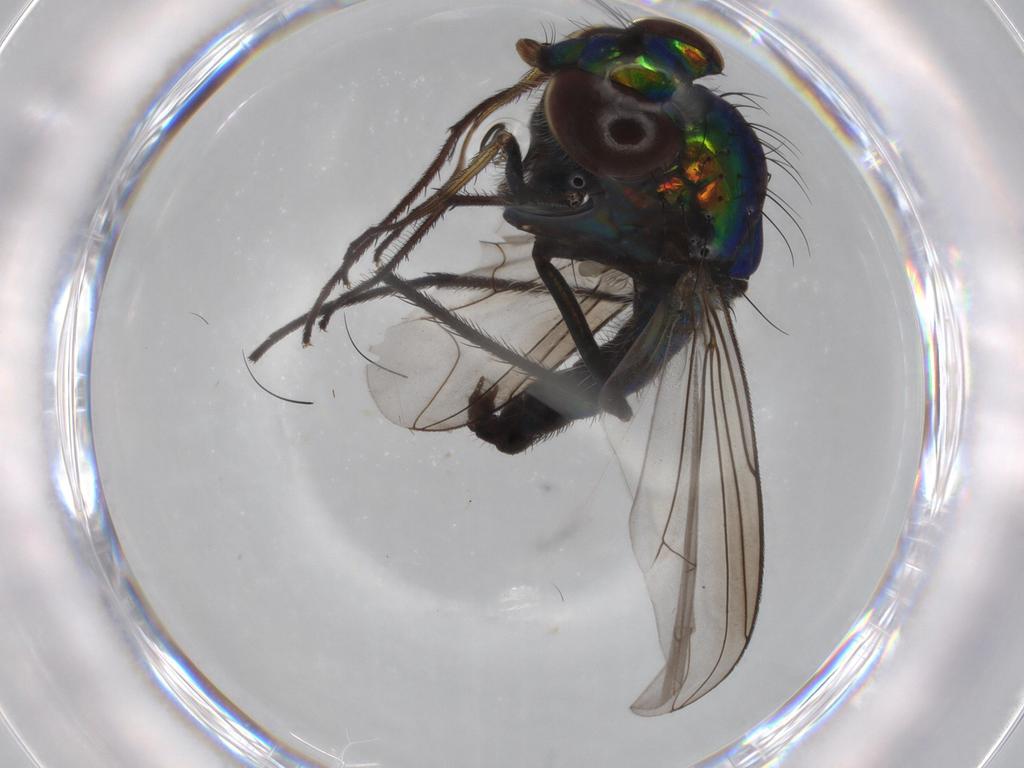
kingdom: Animalia
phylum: Arthropoda
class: Insecta
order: Diptera
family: Dolichopodidae
